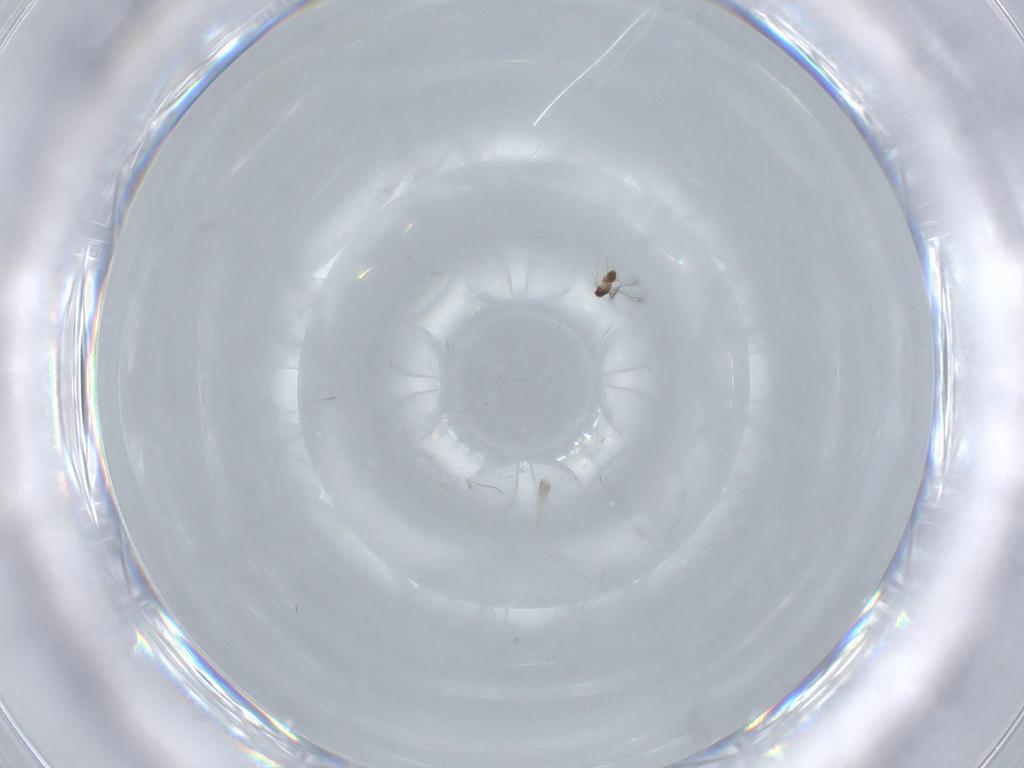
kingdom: Animalia
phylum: Arthropoda
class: Insecta
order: Hymenoptera
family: Mymaridae
